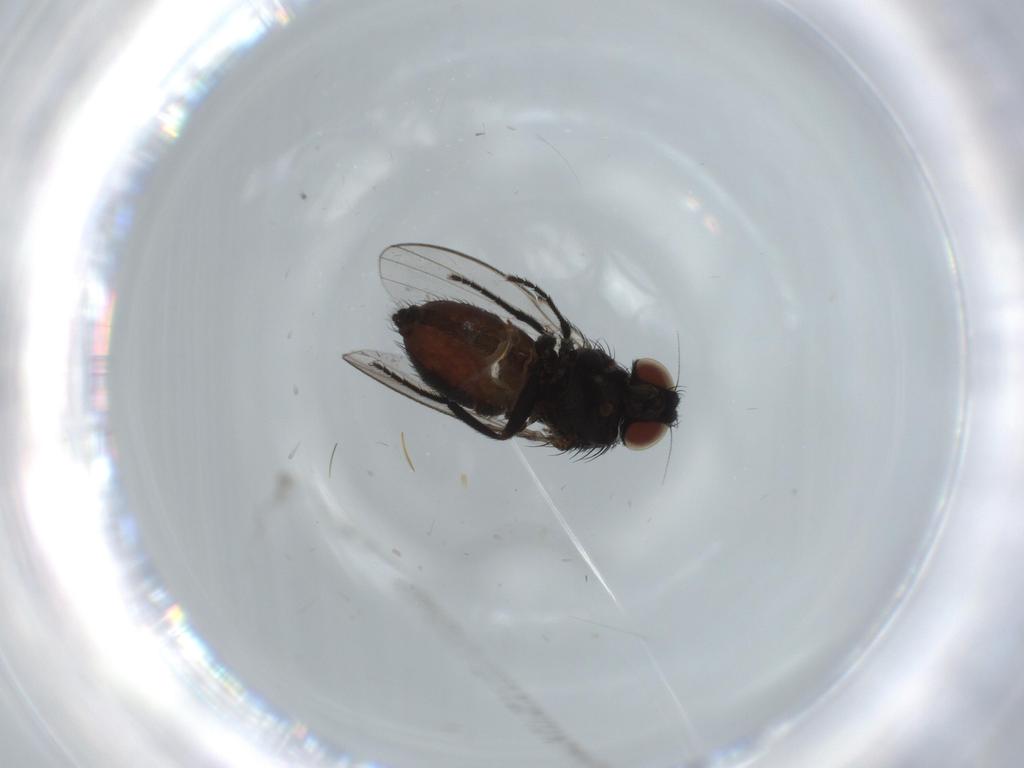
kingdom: Animalia
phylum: Arthropoda
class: Insecta
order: Diptera
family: Milichiidae
